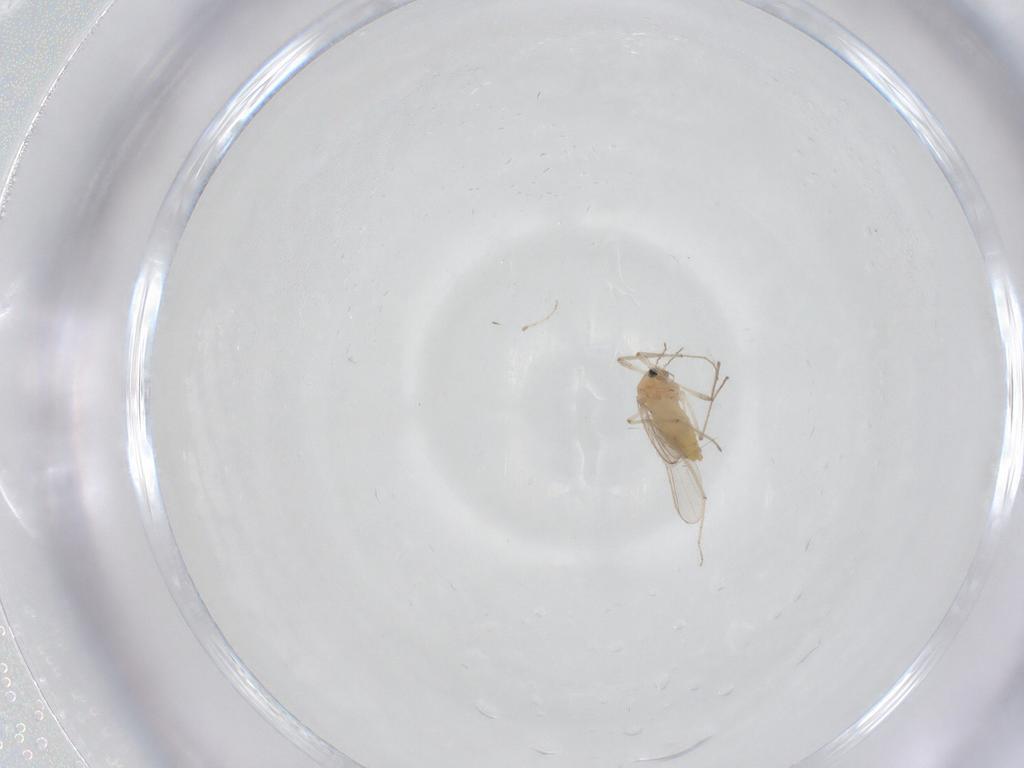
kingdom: Animalia
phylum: Arthropoda
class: Insecta
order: Diptera
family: Chironomidae
